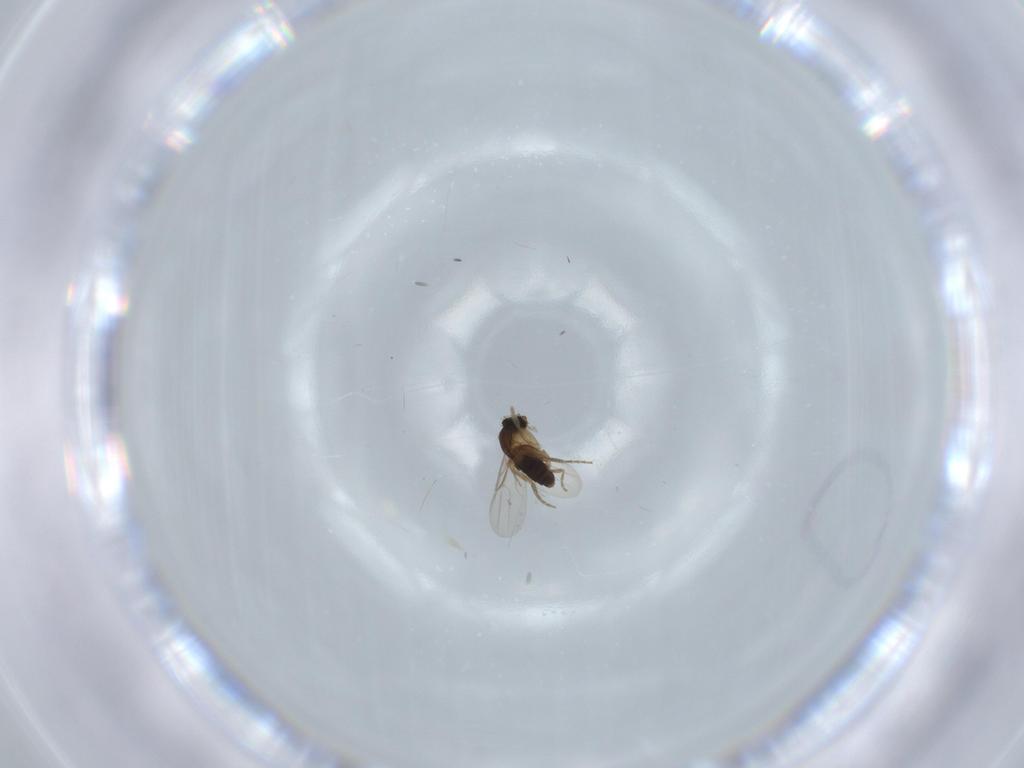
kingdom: Animalia
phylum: Arthropoda
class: Insecta
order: Diptera
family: Phoridae
